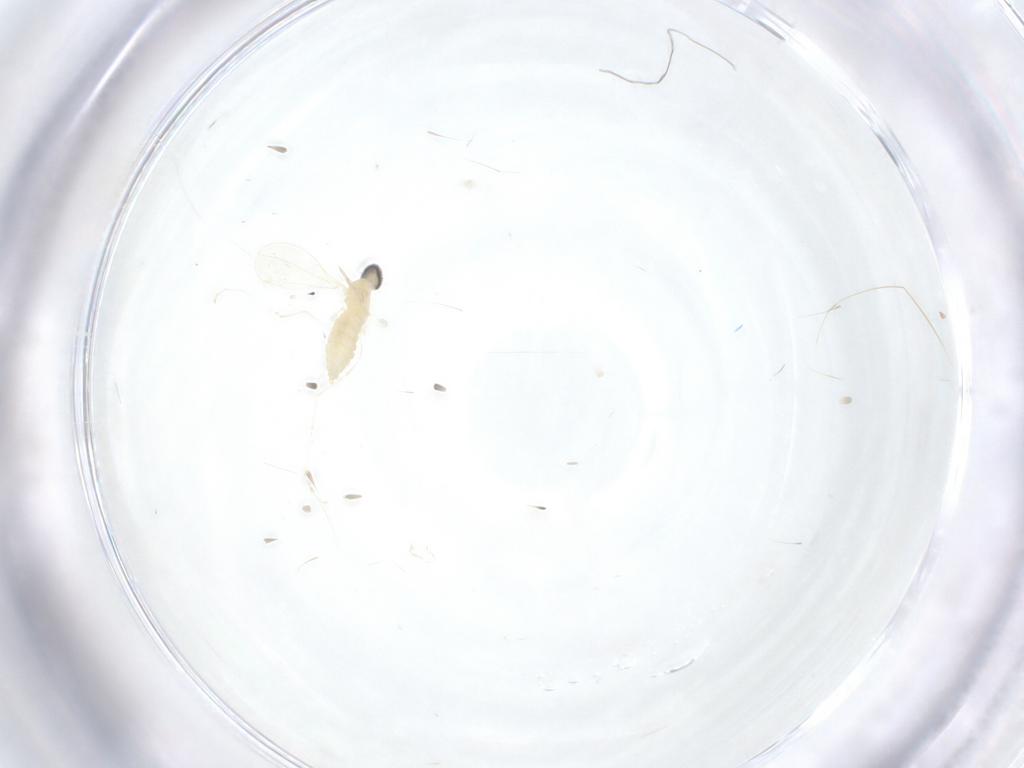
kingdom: Animalia
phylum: Arthropoda
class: Insecta
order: Diptera
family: Cecidomyiidae
